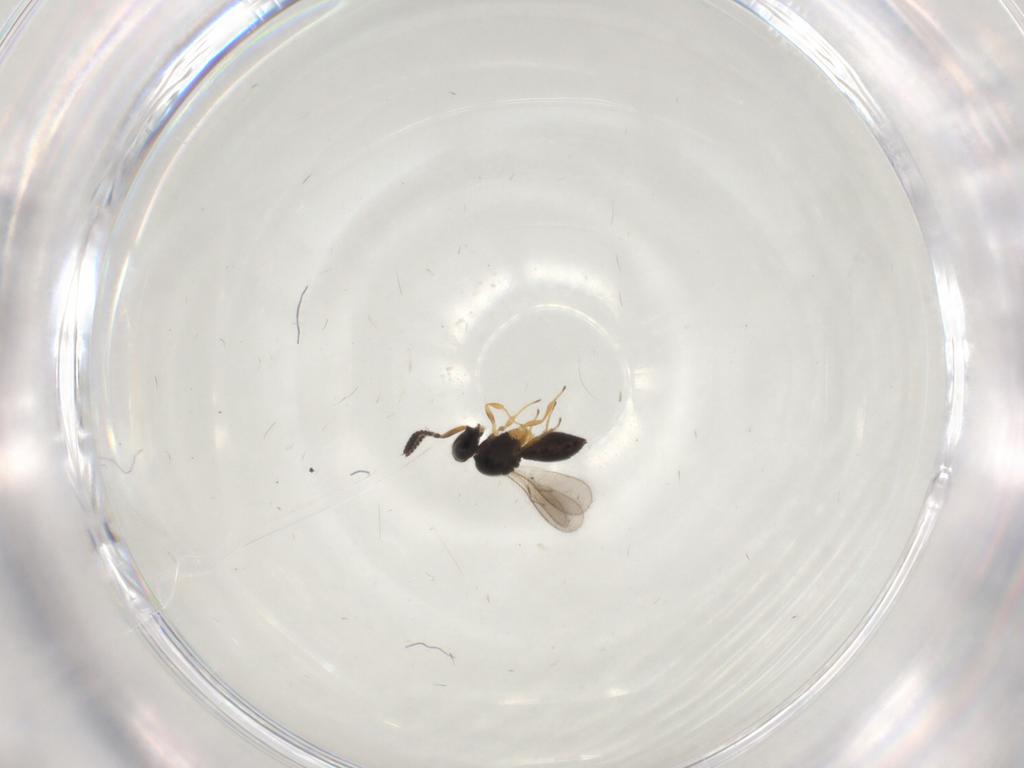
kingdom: Animalia
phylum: Arthropoda
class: Insecta
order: Hymenoptera
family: Scelionidae
